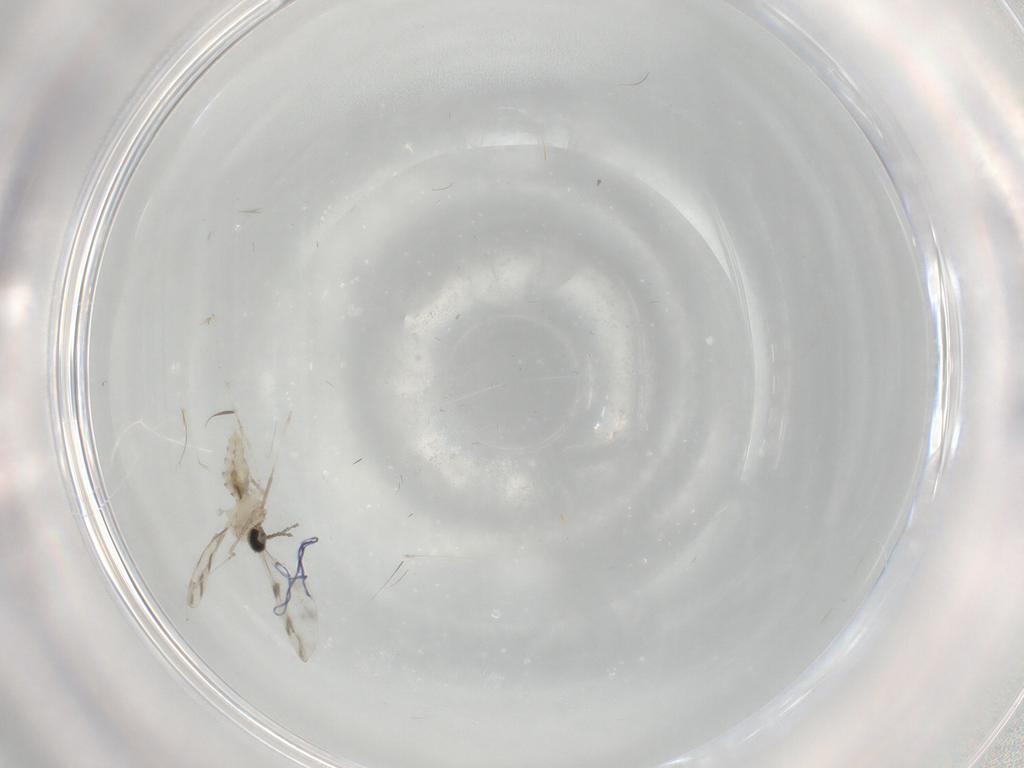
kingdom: Animalia
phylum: Arthropoda
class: Insecta
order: Diptera
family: Cecidomyiidae
